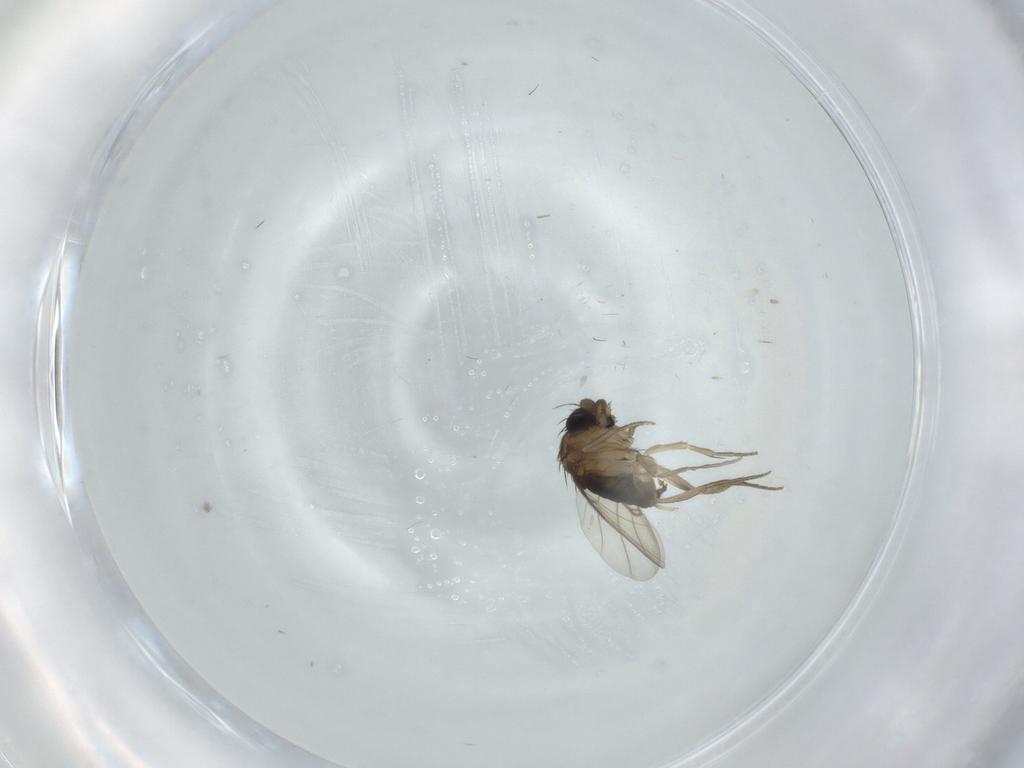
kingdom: Animalia
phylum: Arthropoda
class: Insecta
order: Diptera
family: Phoridae
